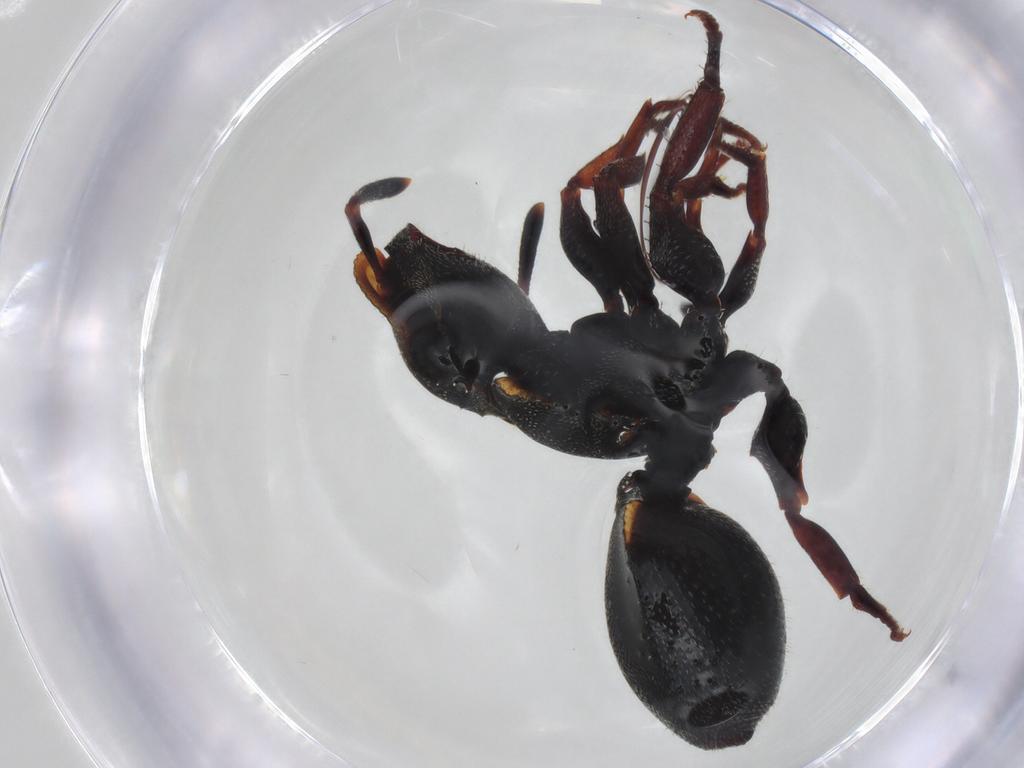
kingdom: Animalia
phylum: Arthropoda
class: Insecta
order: Hymenoptera
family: Formicidae
